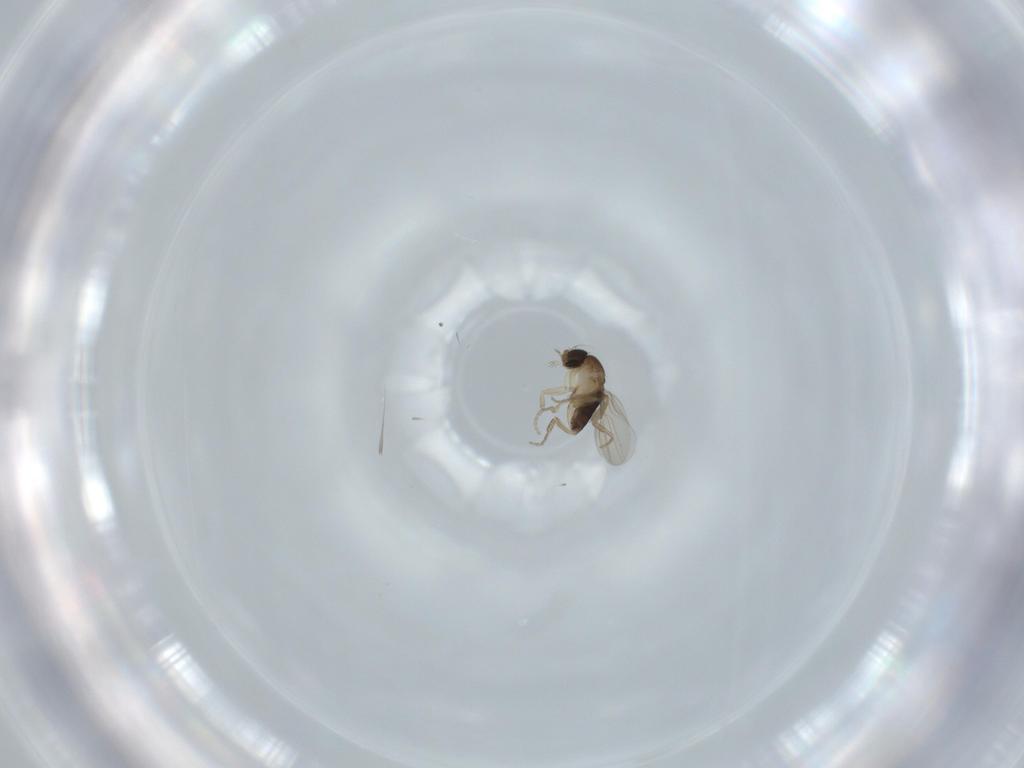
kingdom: Animalia
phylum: Arthropoda
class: Insecta
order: Diptera
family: Phoridae
